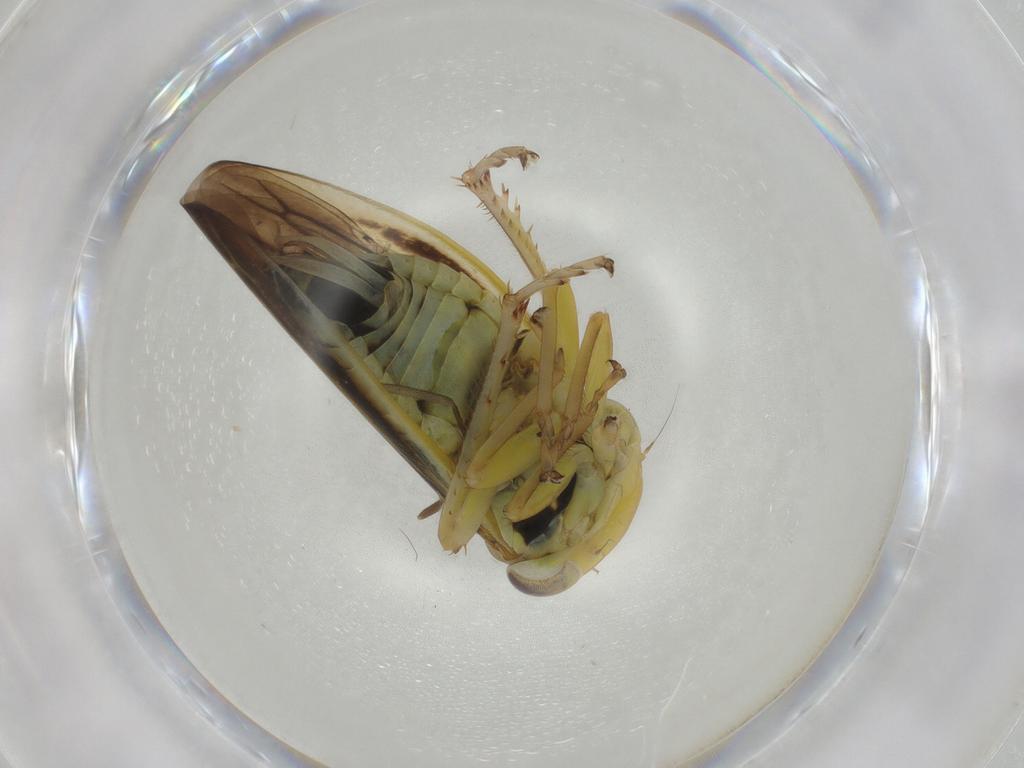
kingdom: Animalia
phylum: Arthropoda
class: Insecta
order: Hemiptera
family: Cicadellidae
